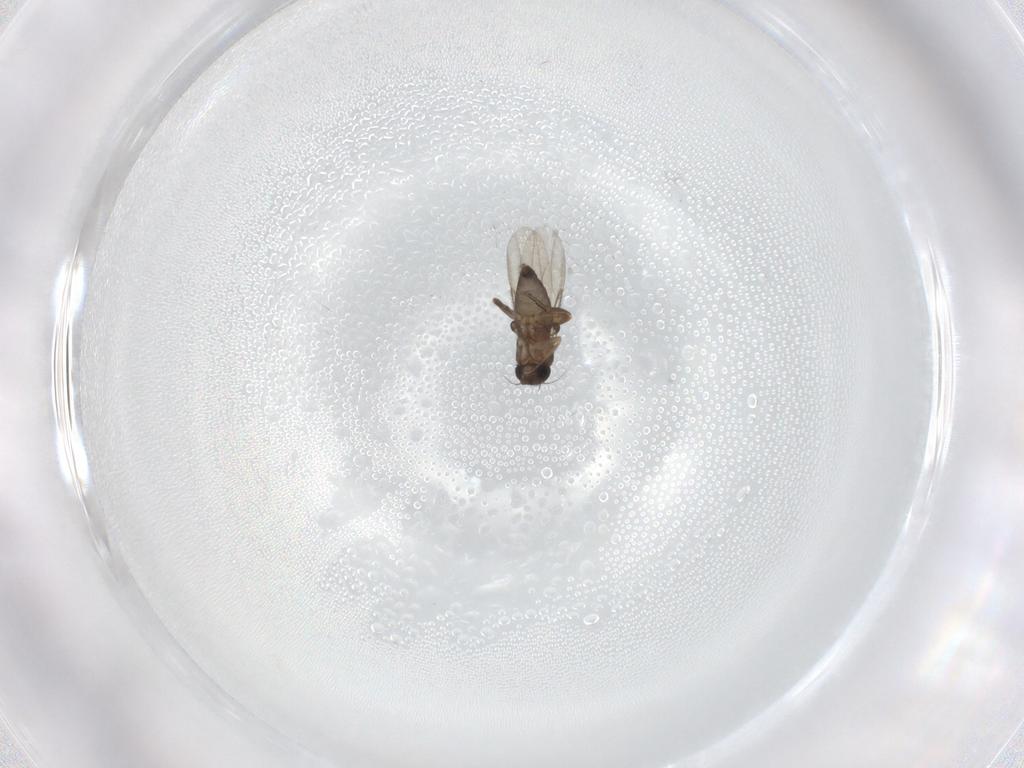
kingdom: Animalia
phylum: Arthropoda
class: Insecta
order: Diptera
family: Phoridae
